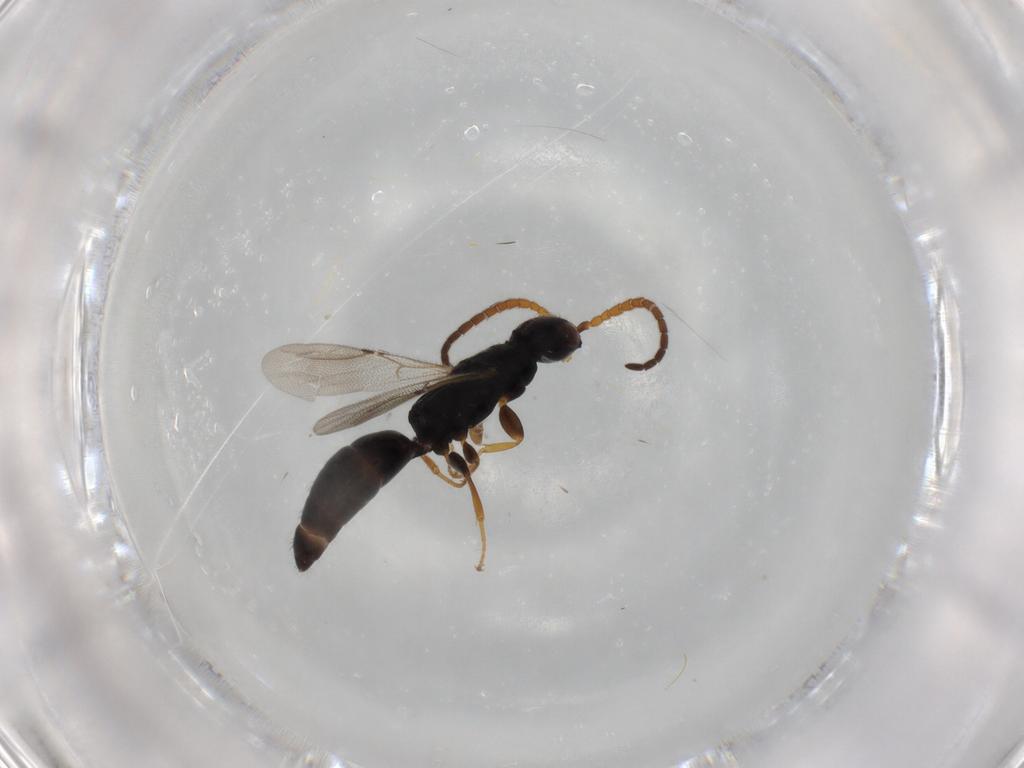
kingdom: Animalia
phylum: Arthropoda
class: Insecta
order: Hymenoptera
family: Bethylidae
